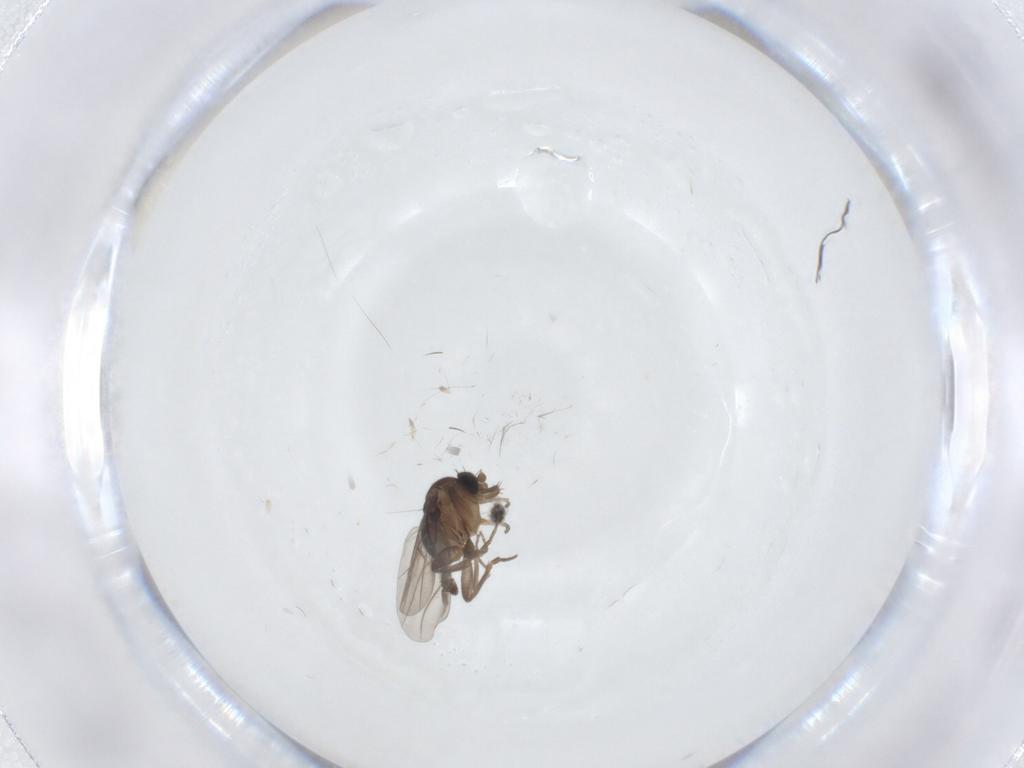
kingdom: Animalia
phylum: Arthropoda
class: Insecta
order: Diptera
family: Phoridae
